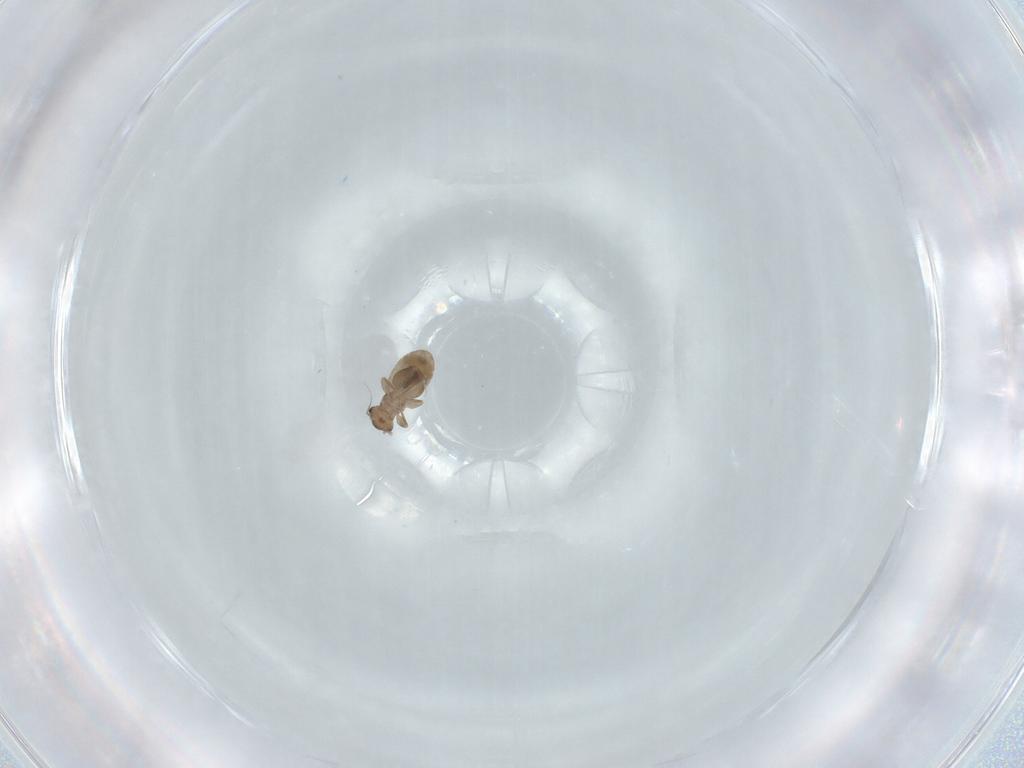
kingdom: Animalia
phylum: Arthropoda
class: Insecta
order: Psocodea
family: Liposcelididae
